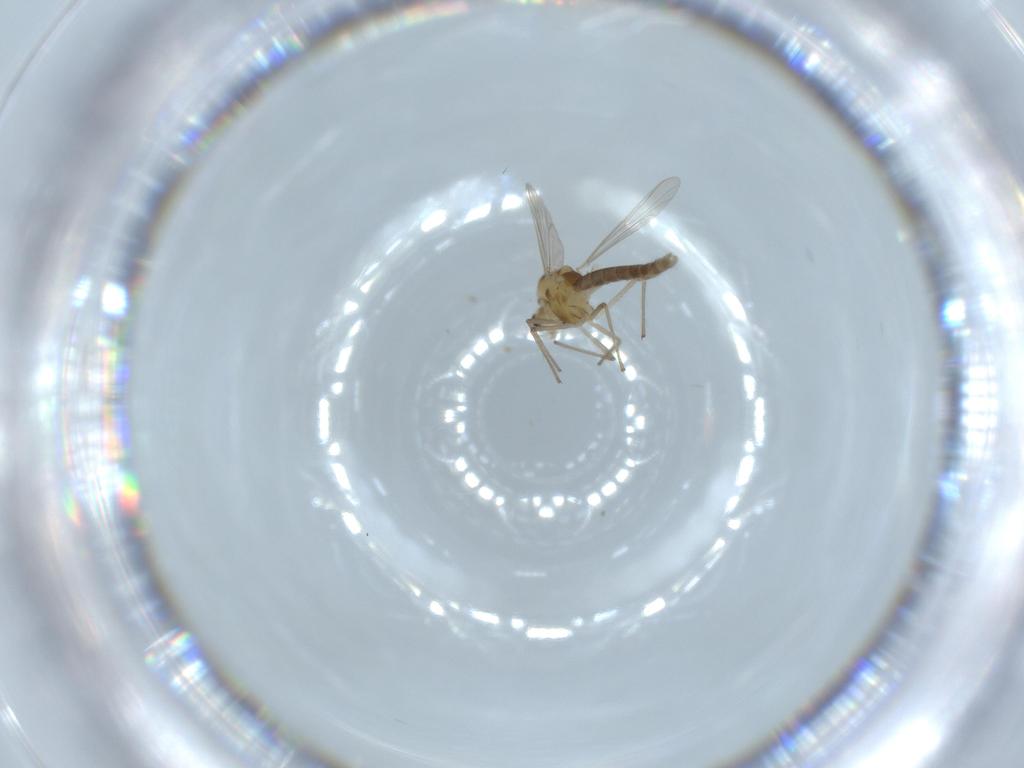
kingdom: Animalia
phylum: Arthropoda
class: Insecta
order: Diptera
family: Chironomidae
